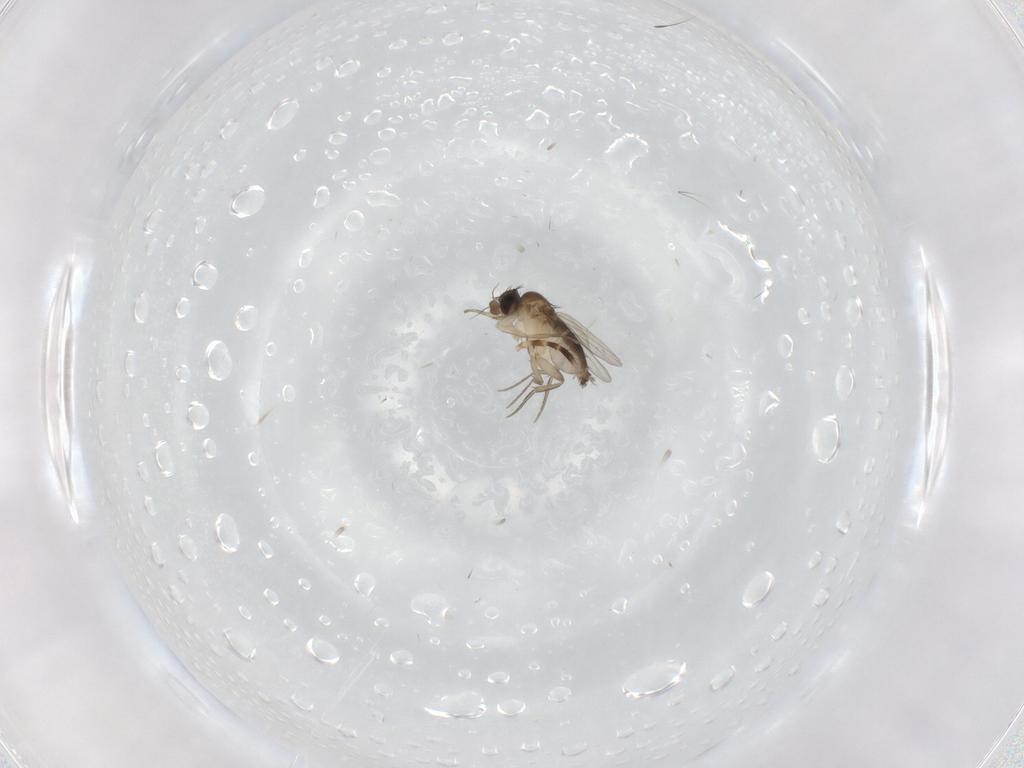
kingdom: Animalia
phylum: Arthropoda
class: Insecta
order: Diptera
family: Phoridae
